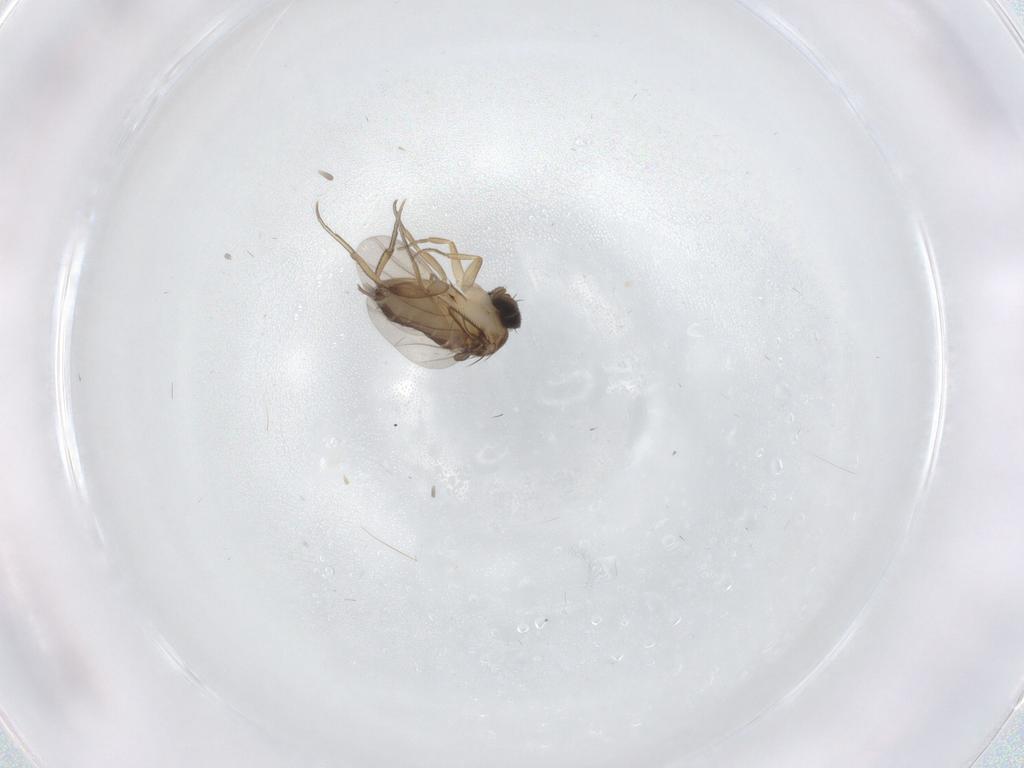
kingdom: Animalia
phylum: Arthropoda
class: Insecta
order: Diptera
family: Phoridae
